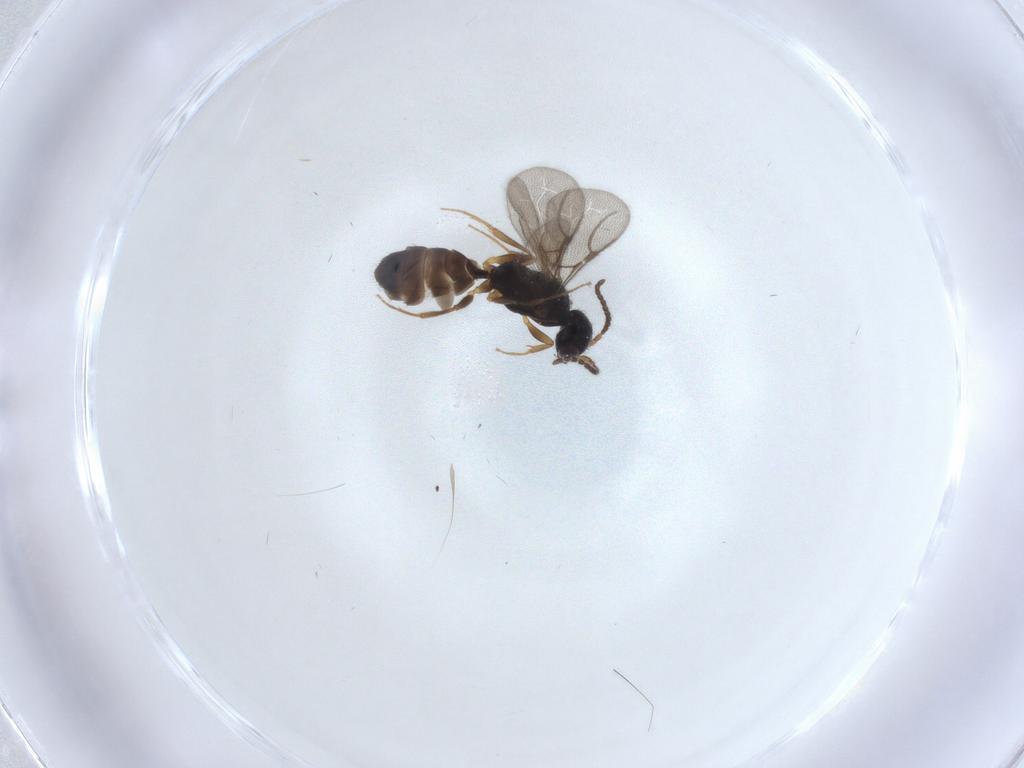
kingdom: Animalia
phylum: Arthropoda
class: Insecta
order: Hymenoptera
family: Bethylidae
